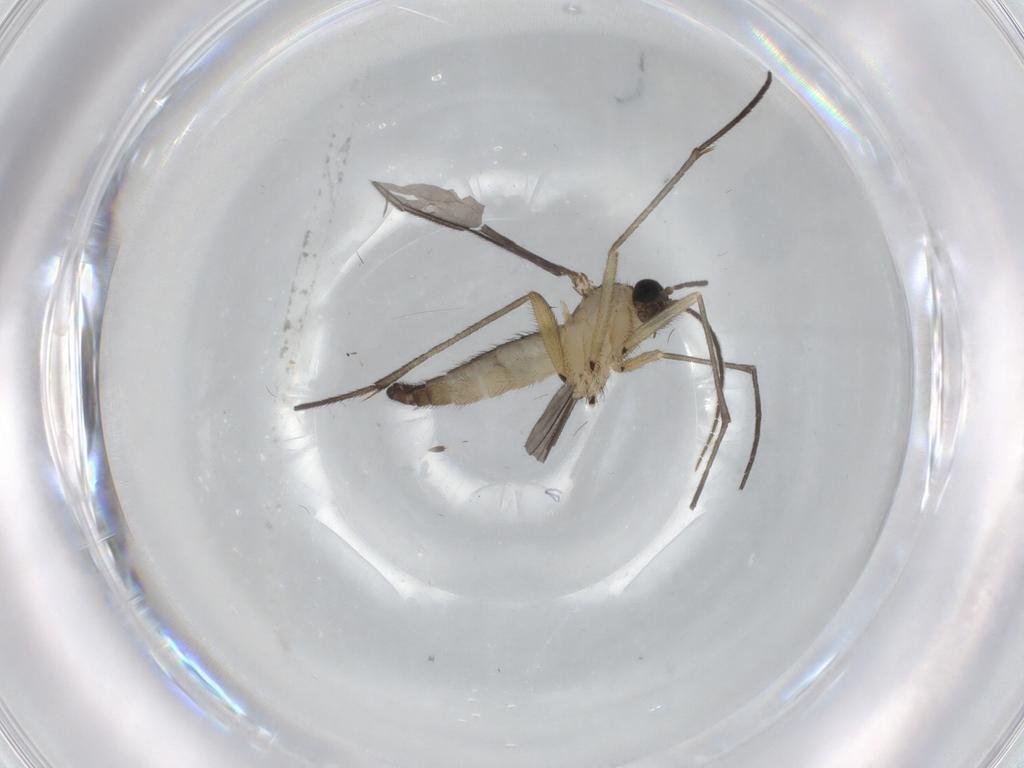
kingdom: Animalia
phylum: Arthropoda
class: Insecta
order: Diptera
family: Sciaridae
